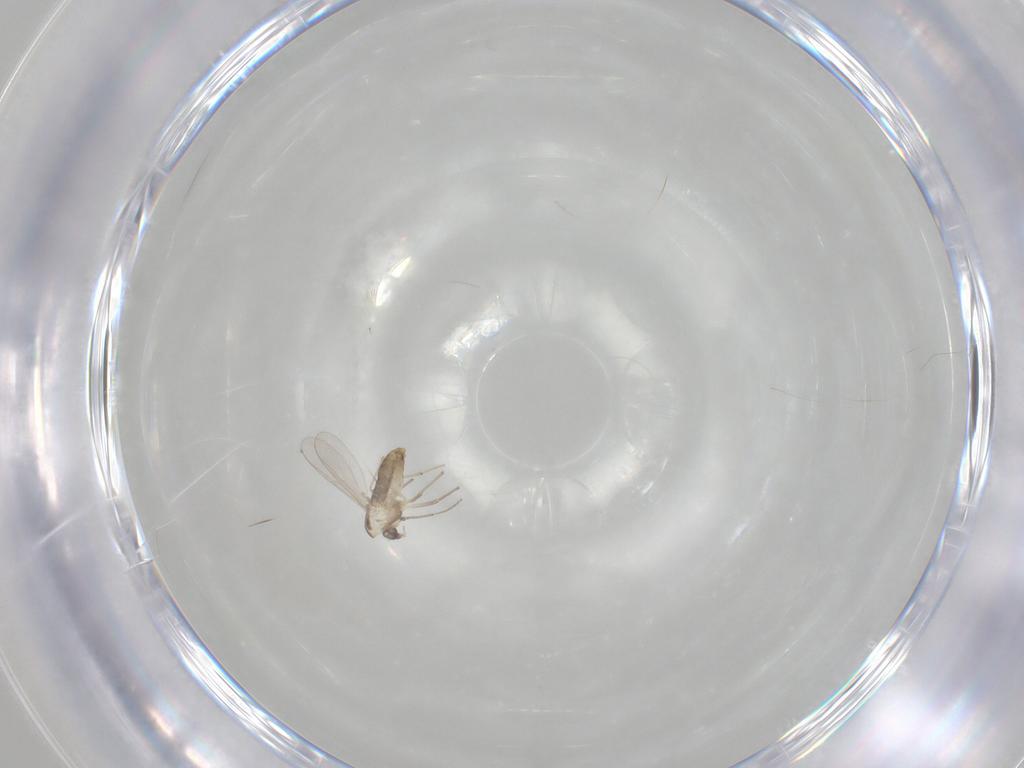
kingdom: Animalia
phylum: Arthropoda
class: Insecta
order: Diptera
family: Chironomidae
